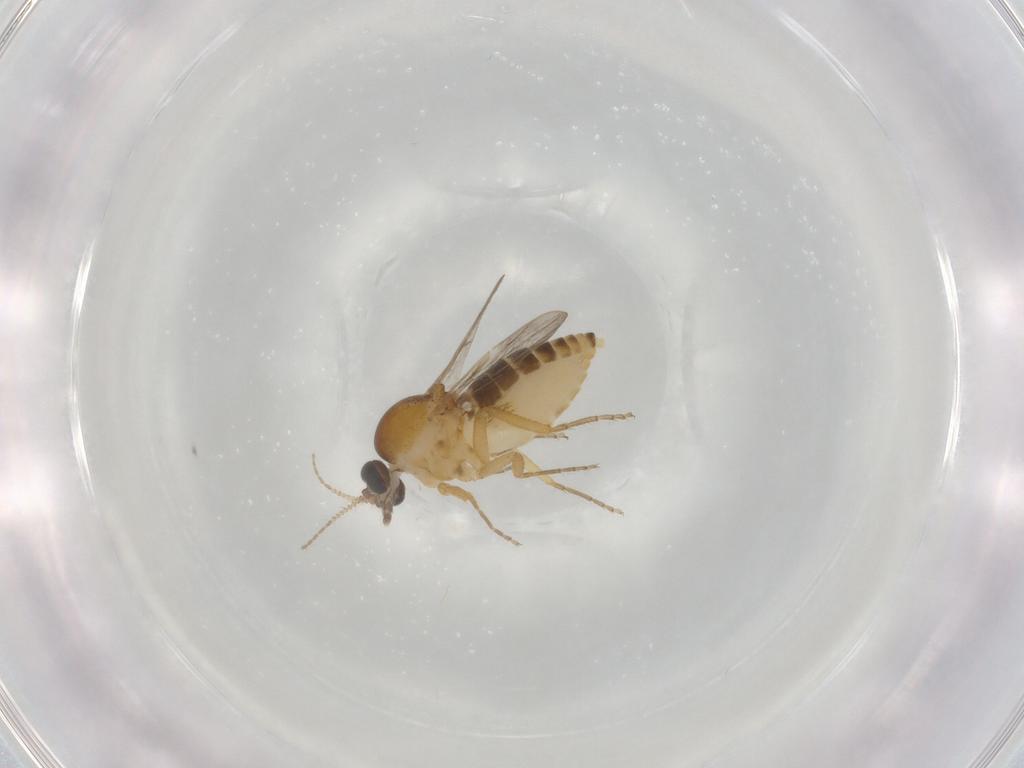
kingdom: Animalia
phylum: Arthropoda
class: Insecta
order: Diptera
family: Ceratopogonidae
